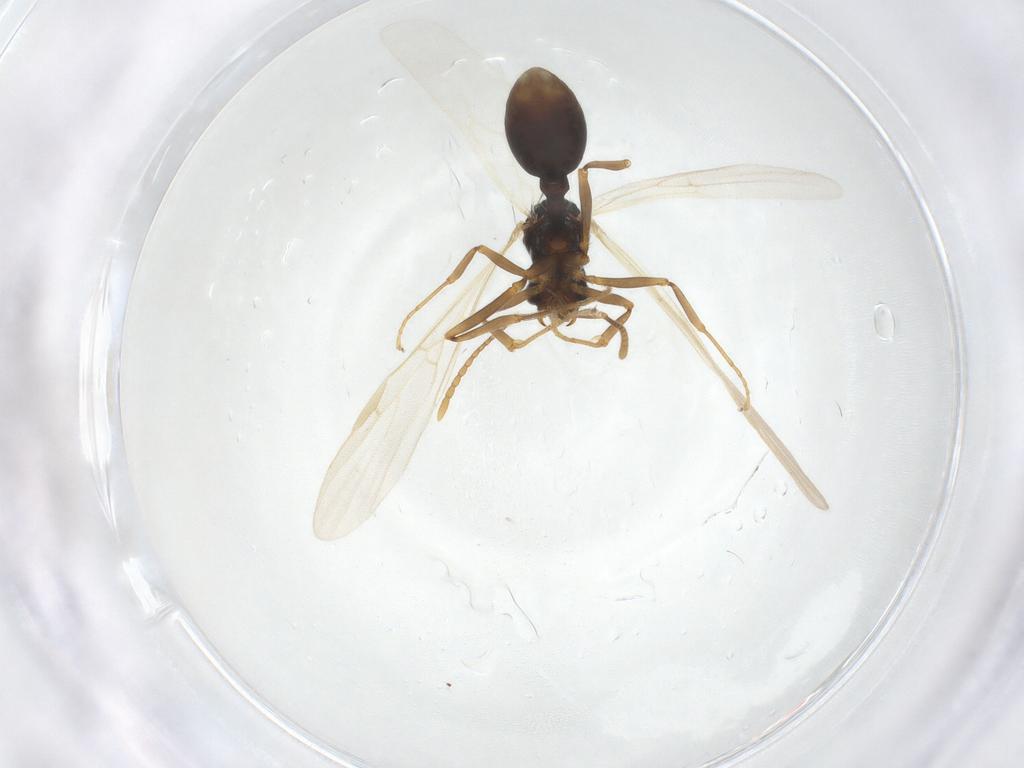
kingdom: Animalia
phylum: Arthropoda
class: Insecta
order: Hymenoptera
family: Formicidae
